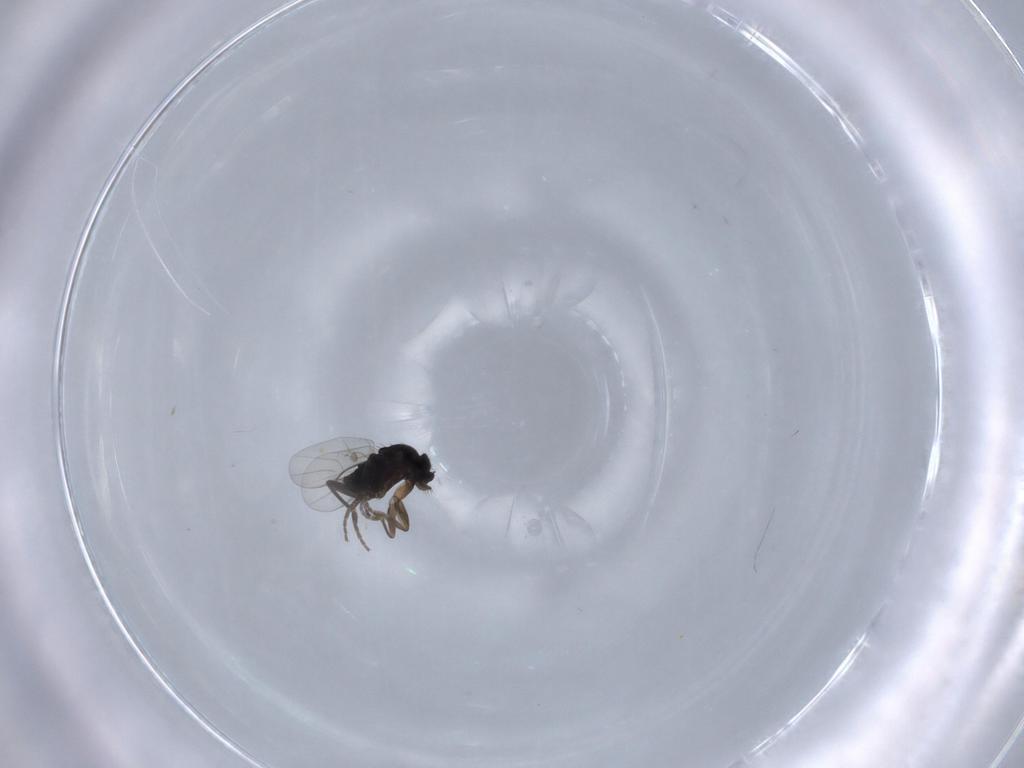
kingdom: Animalia
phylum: Arthropoda
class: Insecta
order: Diptera
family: Phoridae
